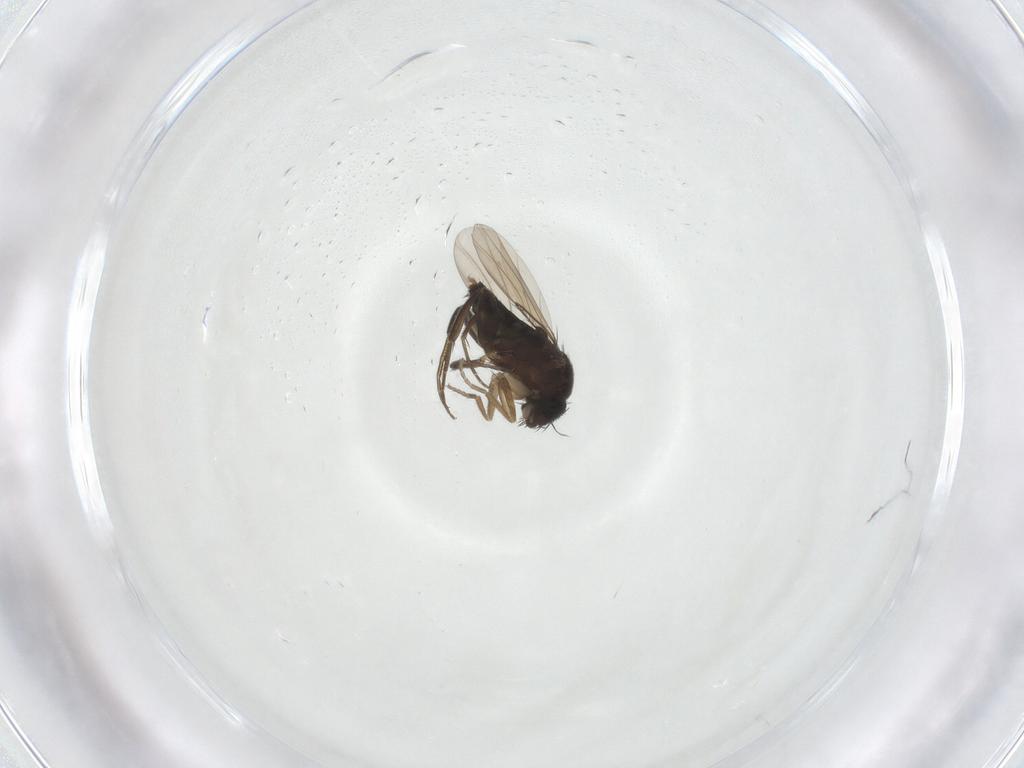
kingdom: Animalia
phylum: Arthropoda
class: Insecta
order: Diptera
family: Phoridae
